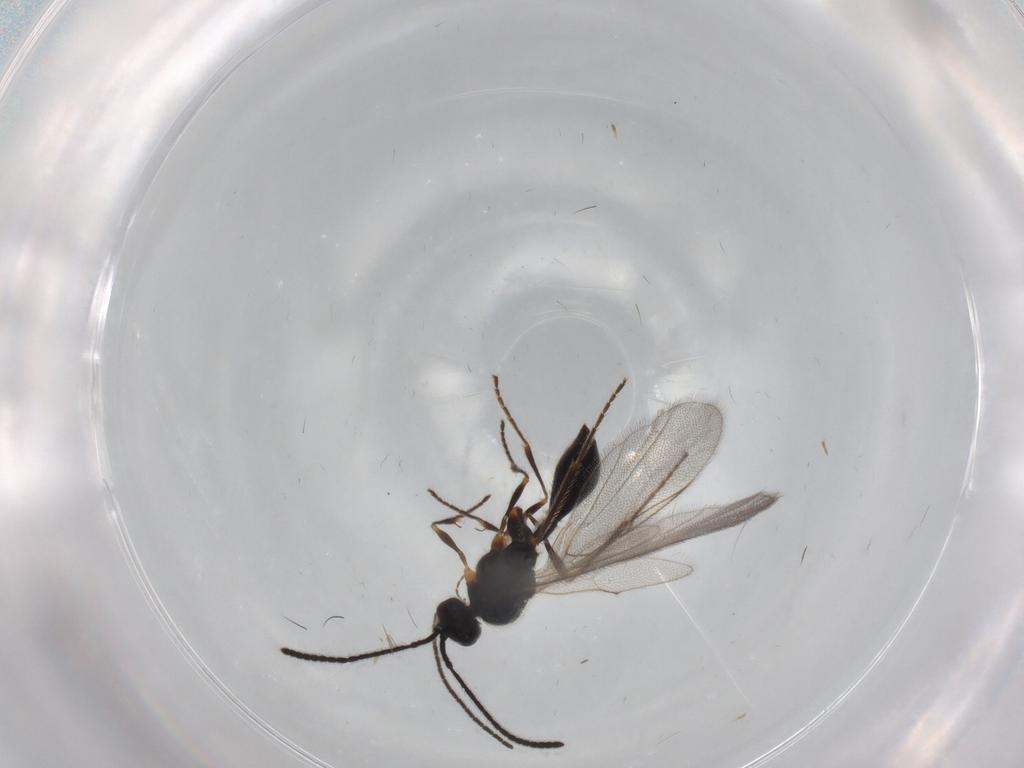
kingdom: Animalia
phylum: Arthropoda
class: Insecta
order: Hymenoptera
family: Diapriidae
